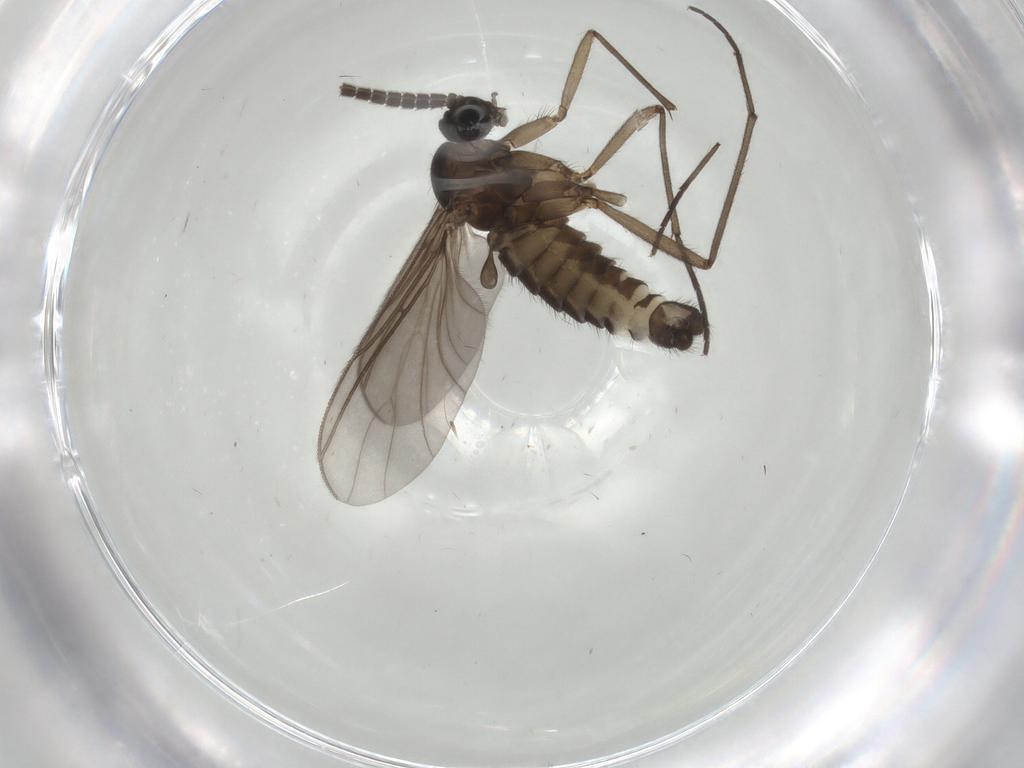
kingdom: Animalia
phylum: Arthropoda
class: Insecta
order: Diptera
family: Sciaridae
